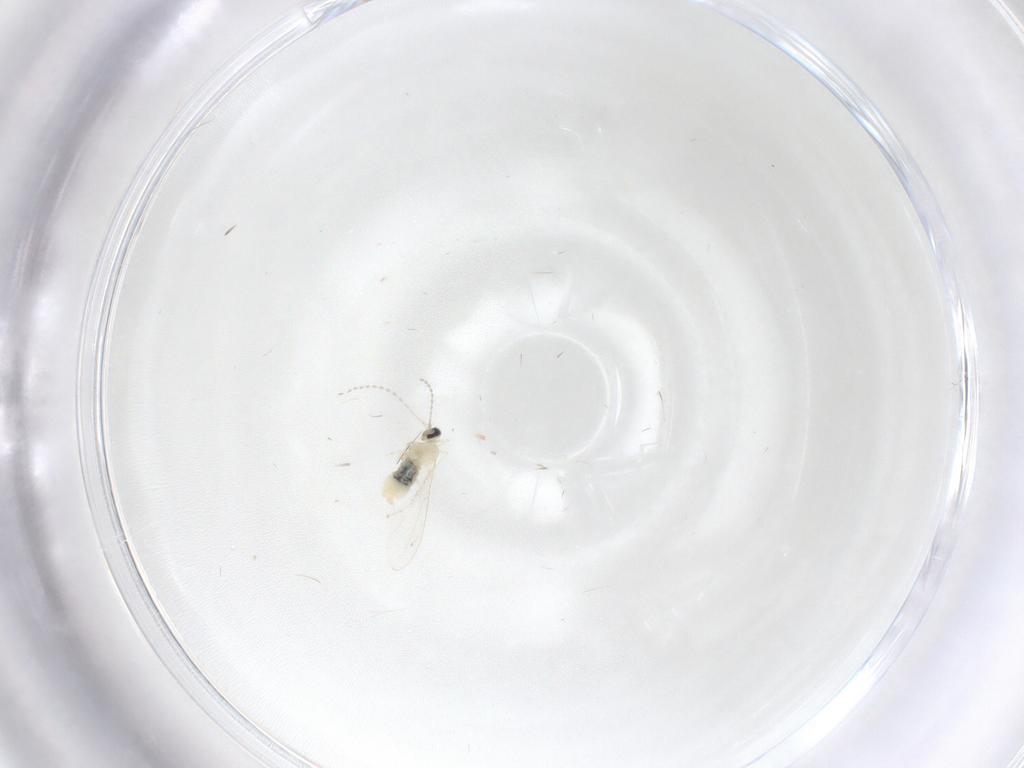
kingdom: Animalia
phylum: Arthropoda
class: Insecta
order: Diptera
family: Cecidomyiidae
